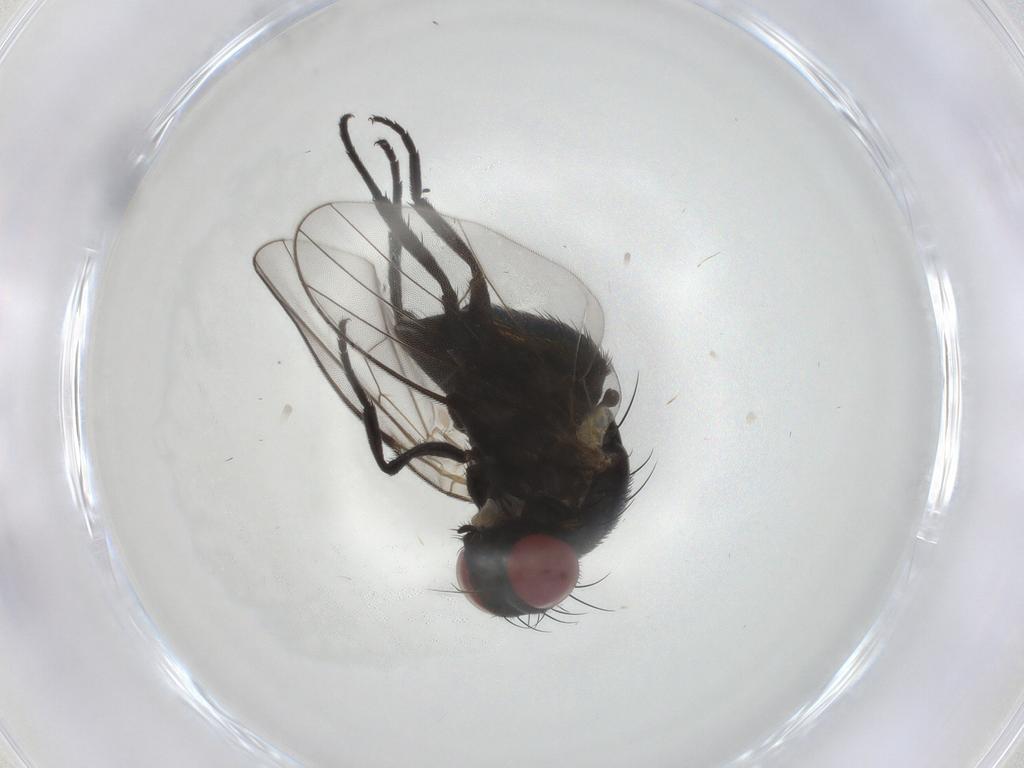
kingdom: Animalia
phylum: Arthropoda
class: Insecta
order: Diptera
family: Agromyzidae
